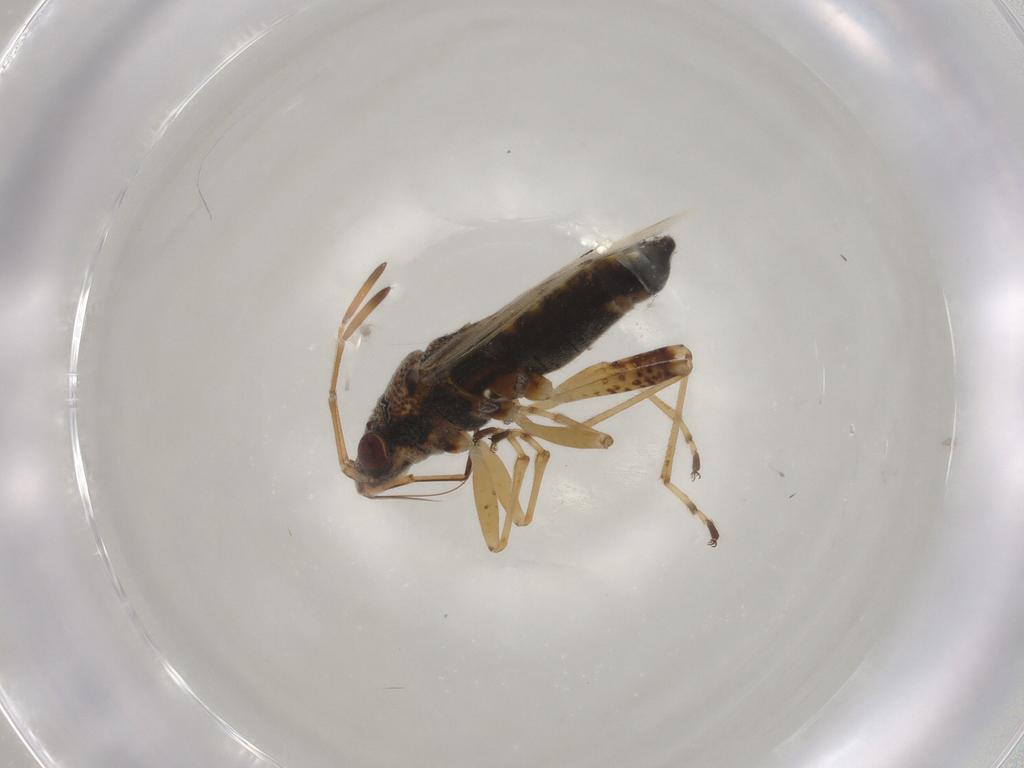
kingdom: Animalia
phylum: Arthropoda
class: Insecta
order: Hemiptera
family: Lygaeidae
